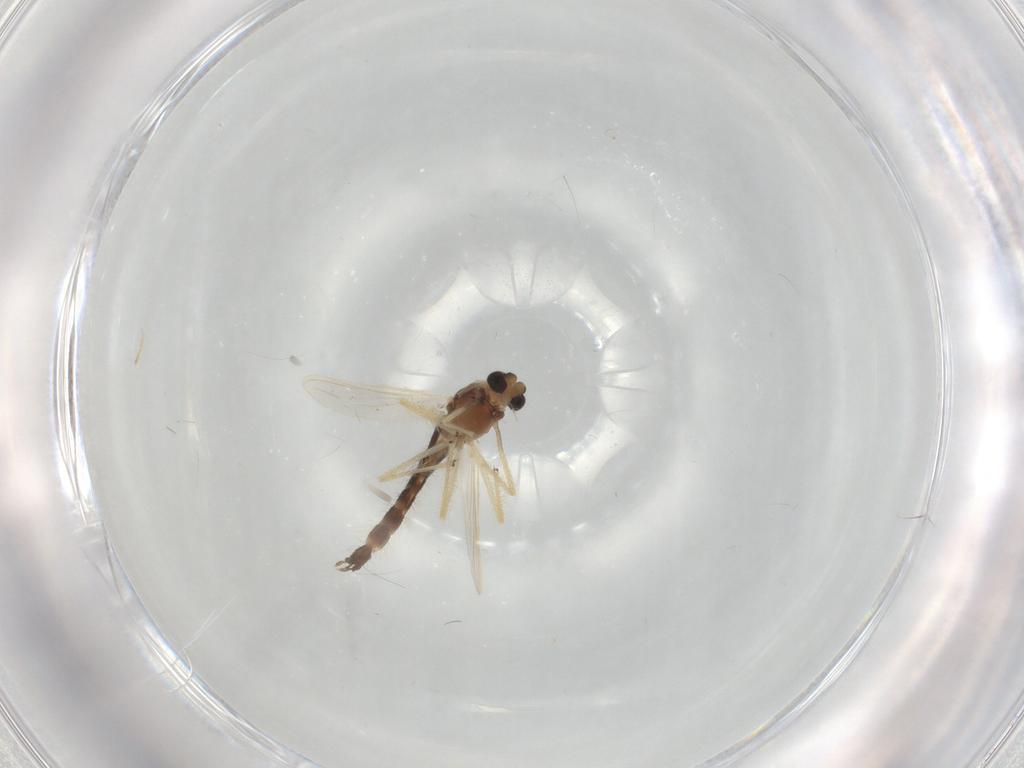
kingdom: Animalia
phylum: Arthropoda
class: Insecta
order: Diptera
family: Chironomidae
